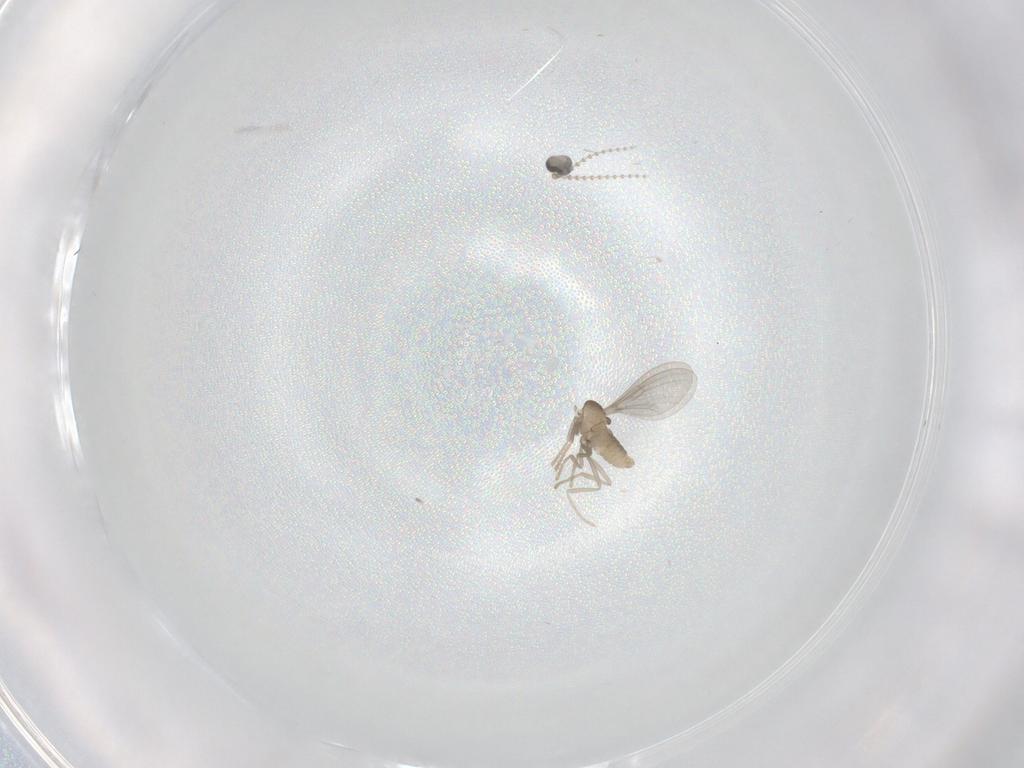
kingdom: Animalia
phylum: Arthropoda
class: Insecta
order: Diptera
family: Cecidomyiidae
